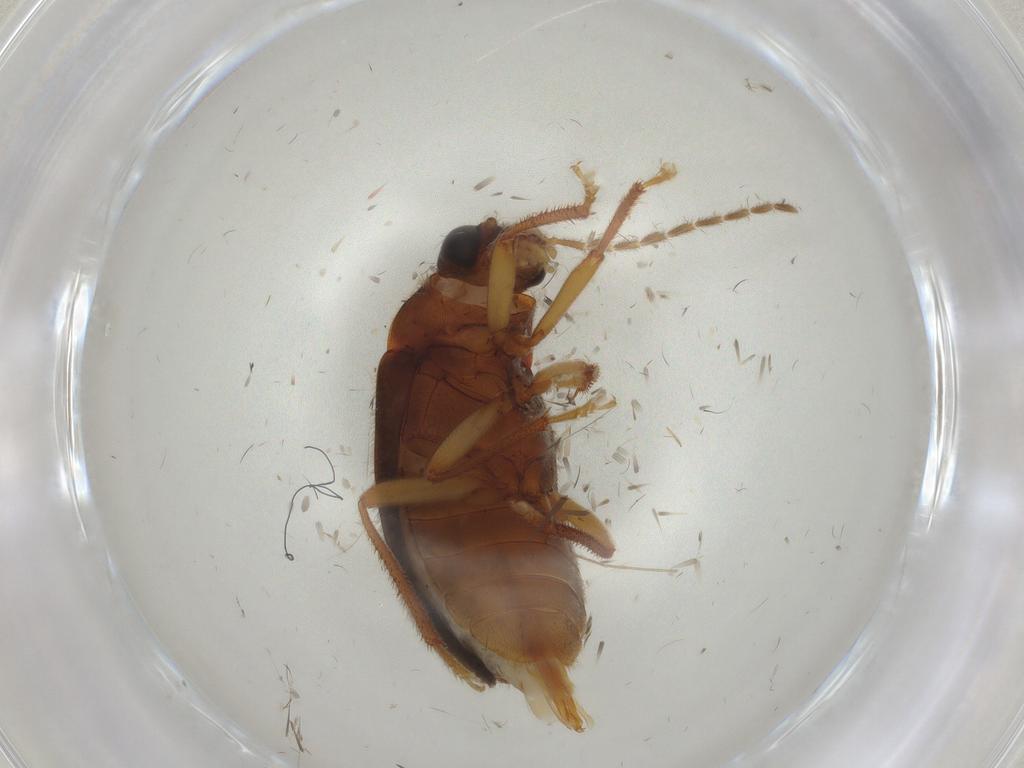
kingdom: Animalia
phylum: Arthropoda
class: Insecta
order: Coleoptera
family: Ptilodactylidae
